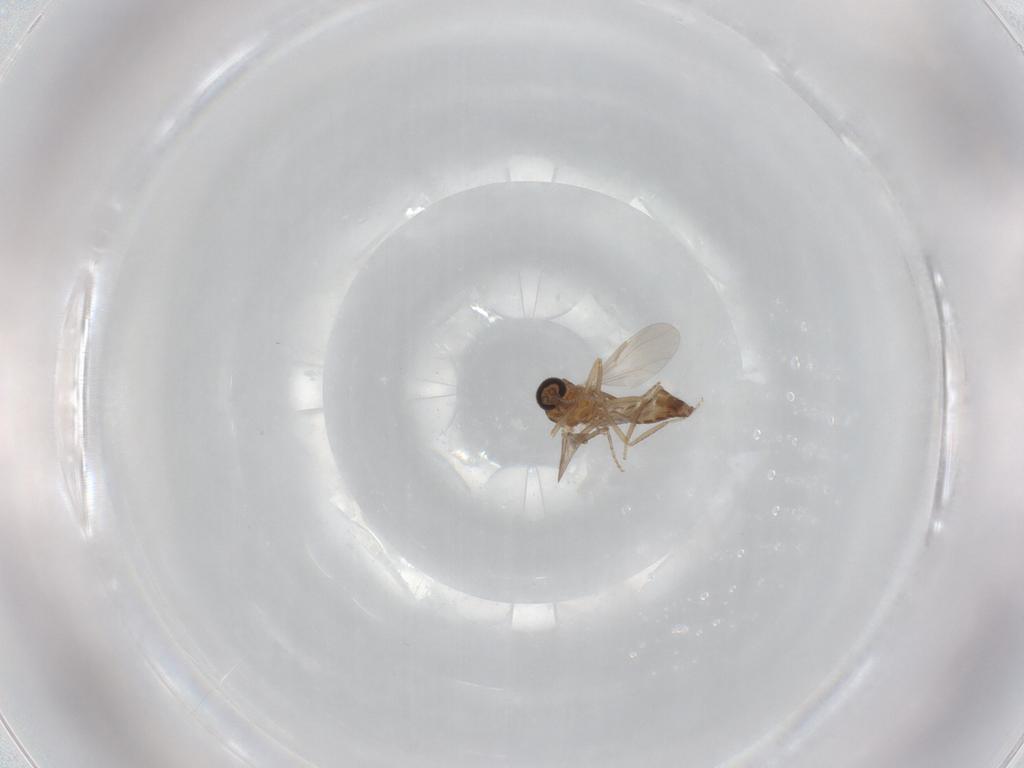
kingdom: Animalia
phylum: Arthropoda
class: Insecta
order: Diptera
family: Ceratopogonidae
